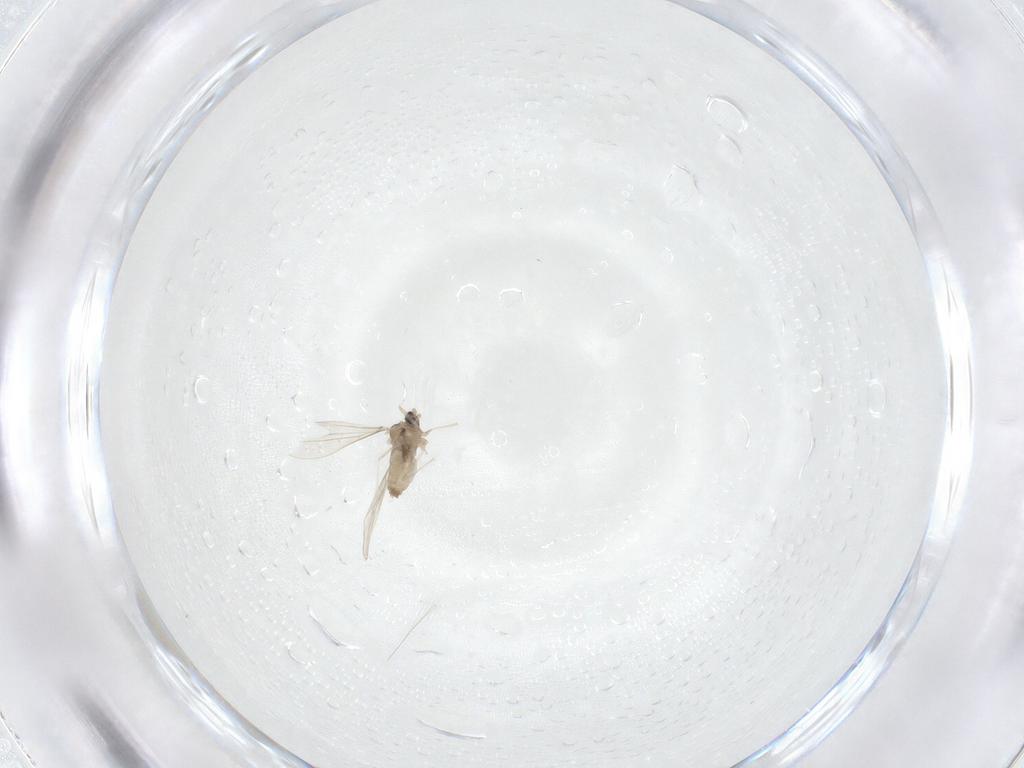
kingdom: Animalia
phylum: Arthropoda
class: Insecta
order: Diptera
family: Cecidomyiidae
